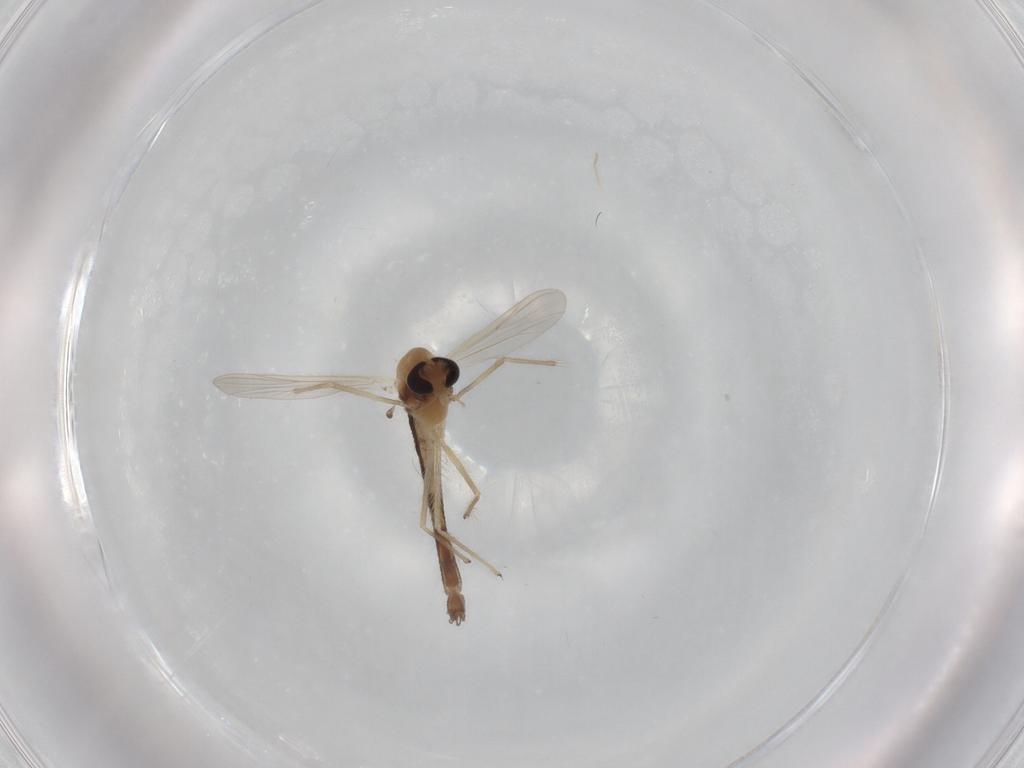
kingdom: Animalia
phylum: Arthropoda
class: Insecta
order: Diptera
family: Chironomidae
